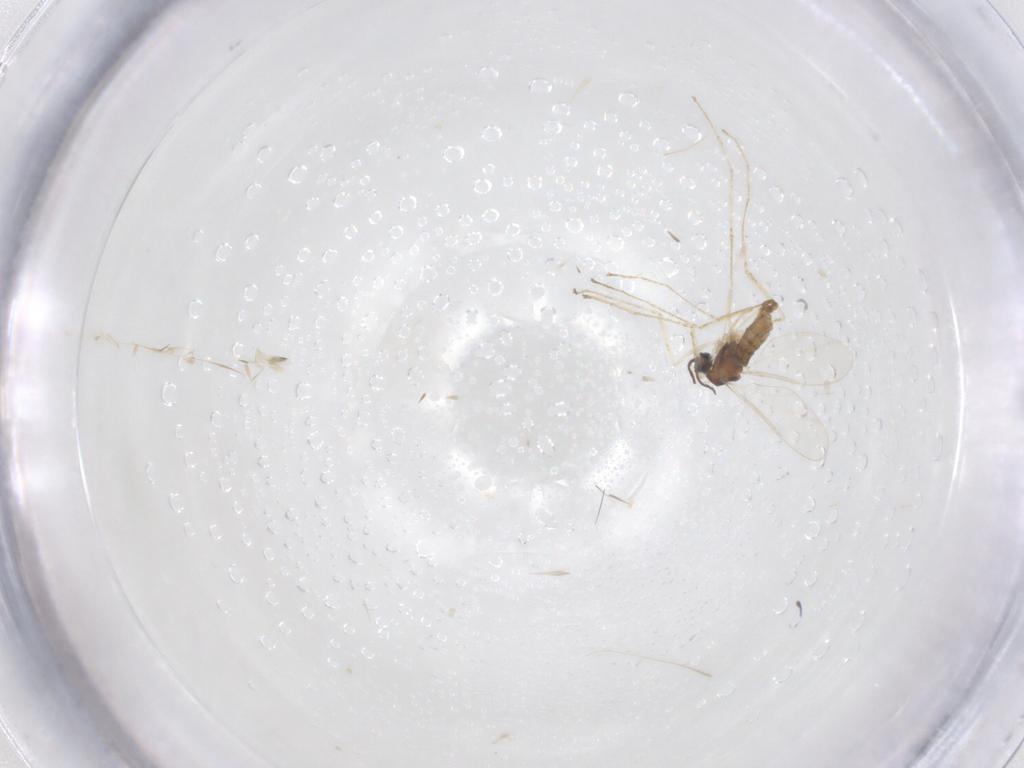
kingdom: Animalia
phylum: Arthropoda
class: Insecta
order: Diptera
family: Cecidomyiidae
